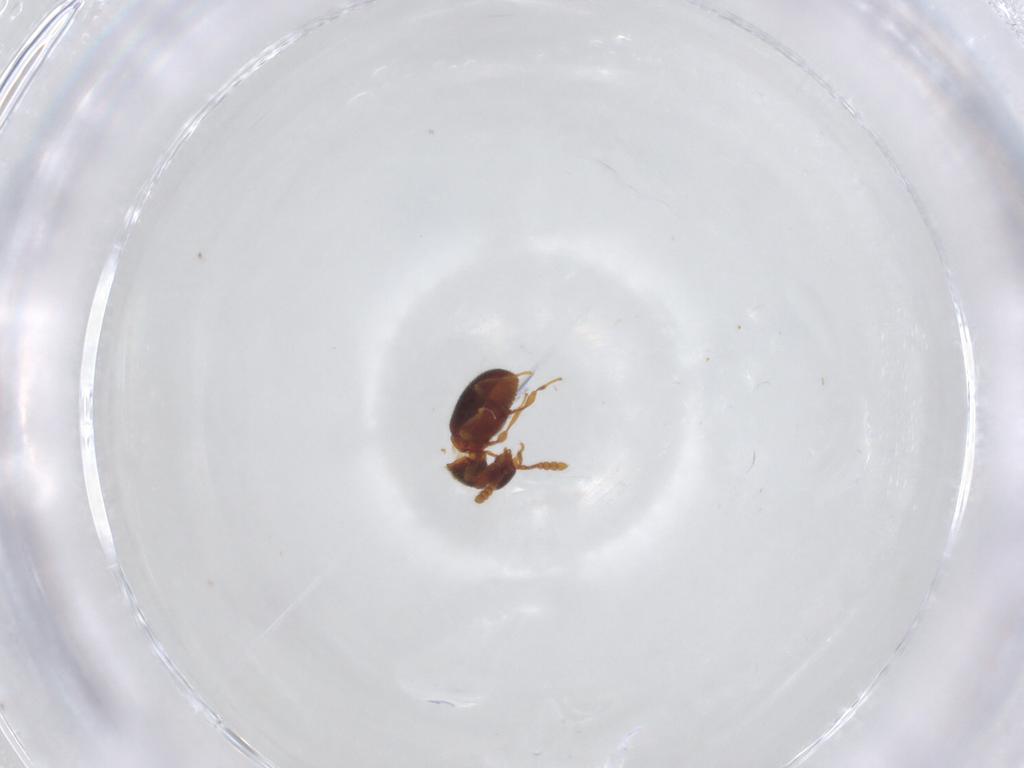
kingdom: Animalia
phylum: Arthropoda
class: Insecta
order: Coleoptera
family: Staphylinidae
